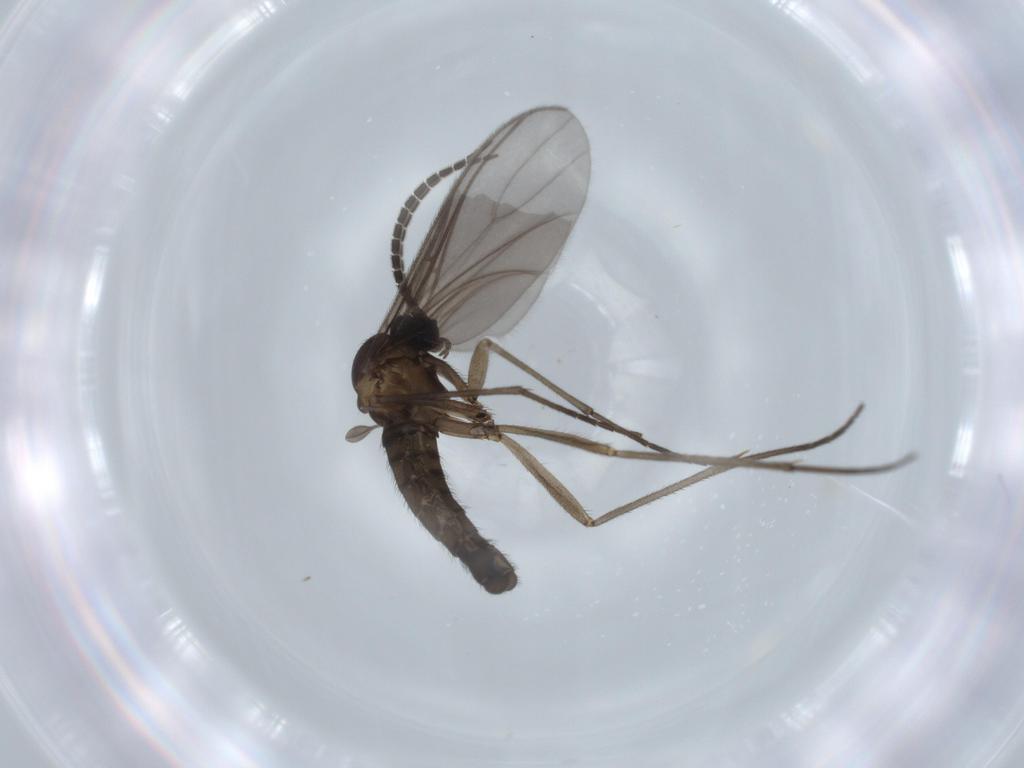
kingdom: Animalia
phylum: Arthropoda
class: Insecta
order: Diptera
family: Sciaridae
